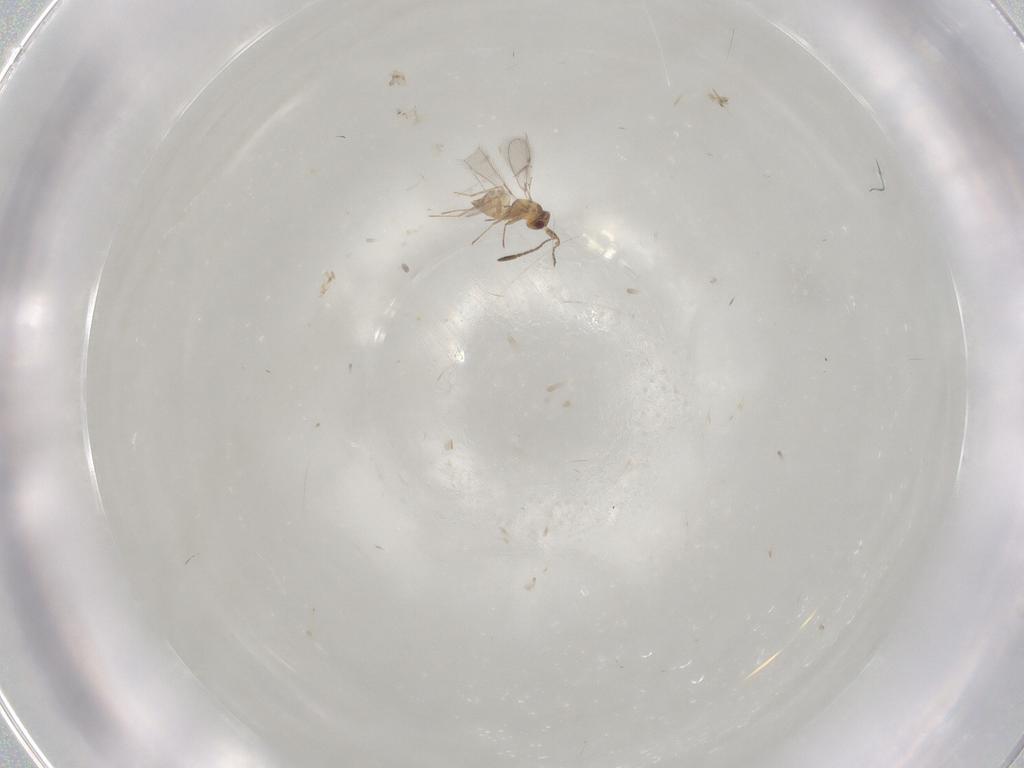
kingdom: Animalia
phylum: Arthropoda
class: Insecta
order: Hymenoptera
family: Mymaridae
